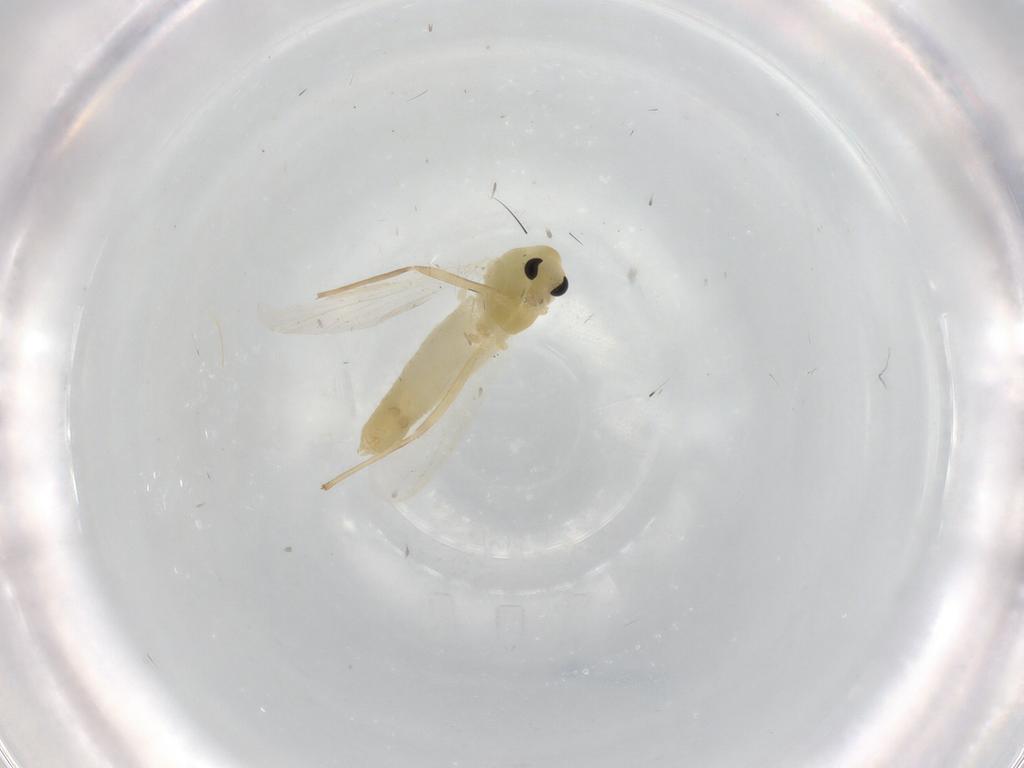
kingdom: Animalia
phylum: Arthropoda
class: Insecta
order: Diptera
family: Chironomidae
